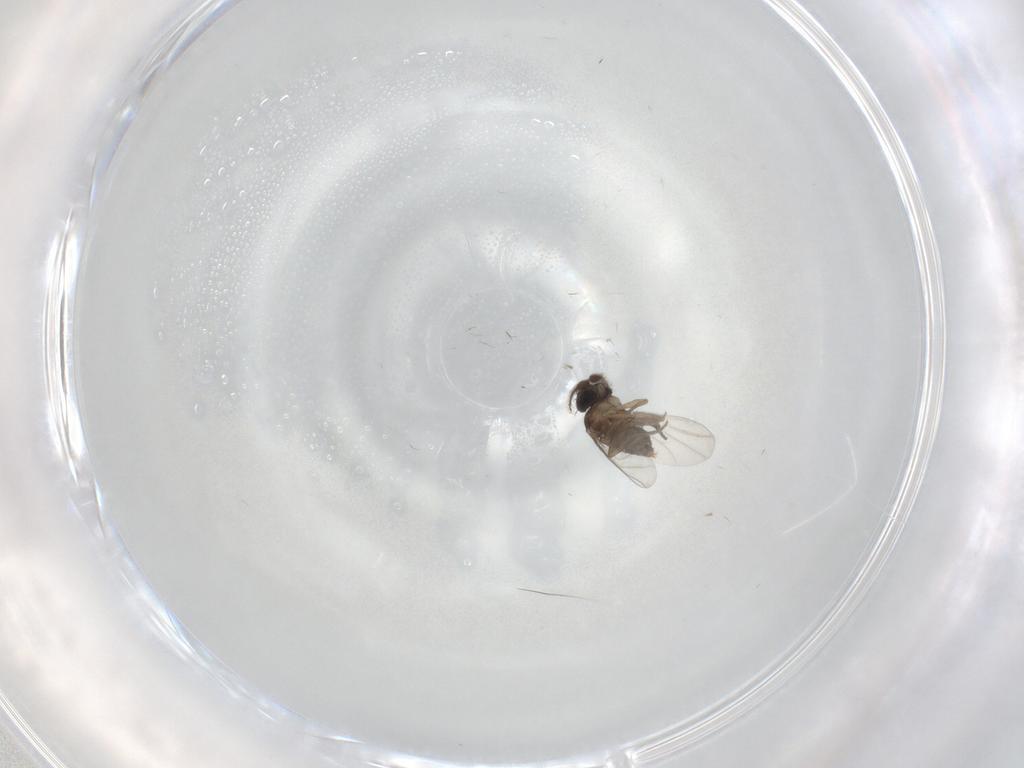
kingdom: Animalia
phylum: Arthropoda
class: Insecta
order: Diptera
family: Phoridae
